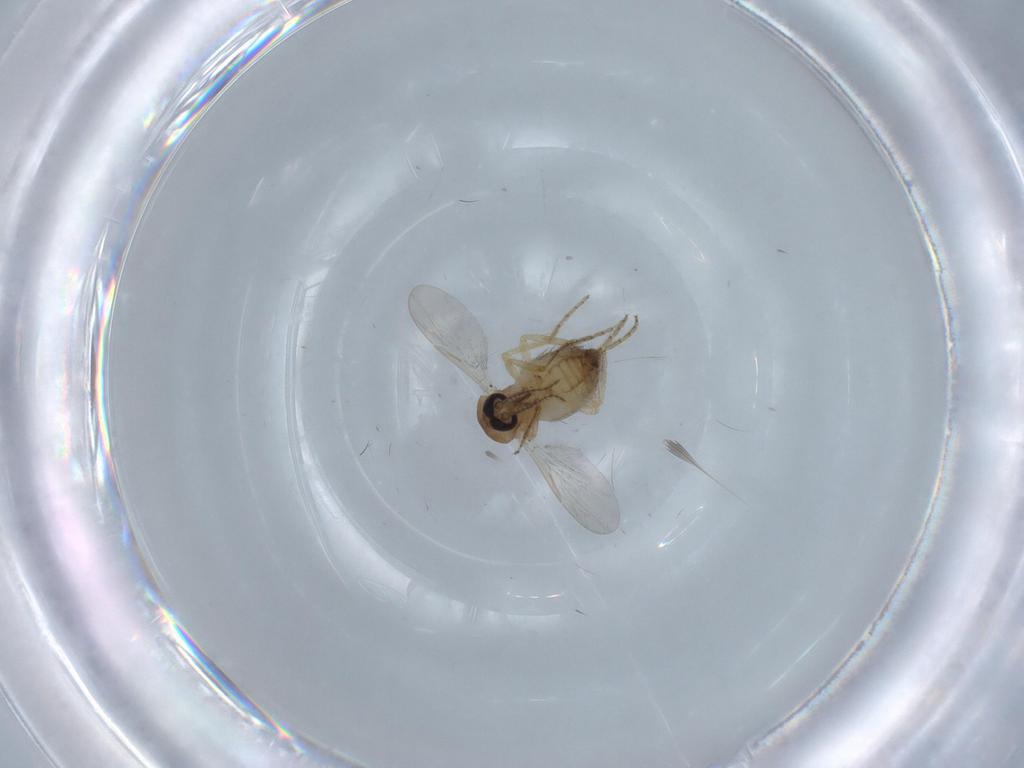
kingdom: Animalia
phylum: Arthropoda
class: Insecta
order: Diptera
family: Ceratopogonidae
